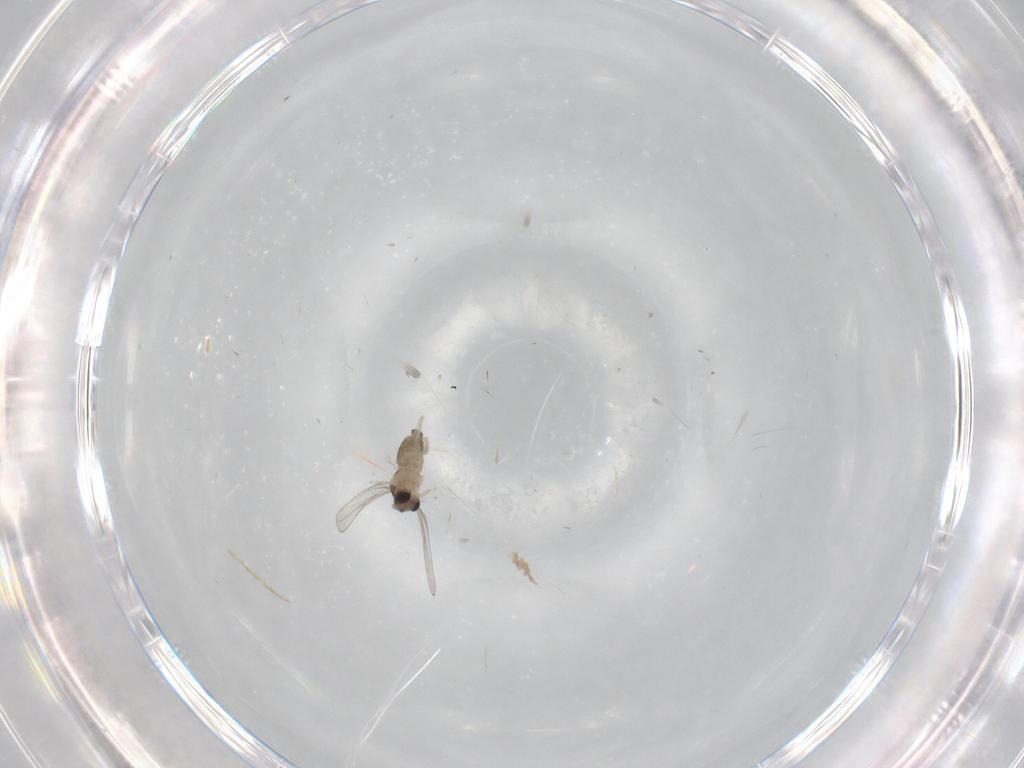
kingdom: Animalia
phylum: Arthropoda
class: Insecta
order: Diptera
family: Cecidomyiidae
